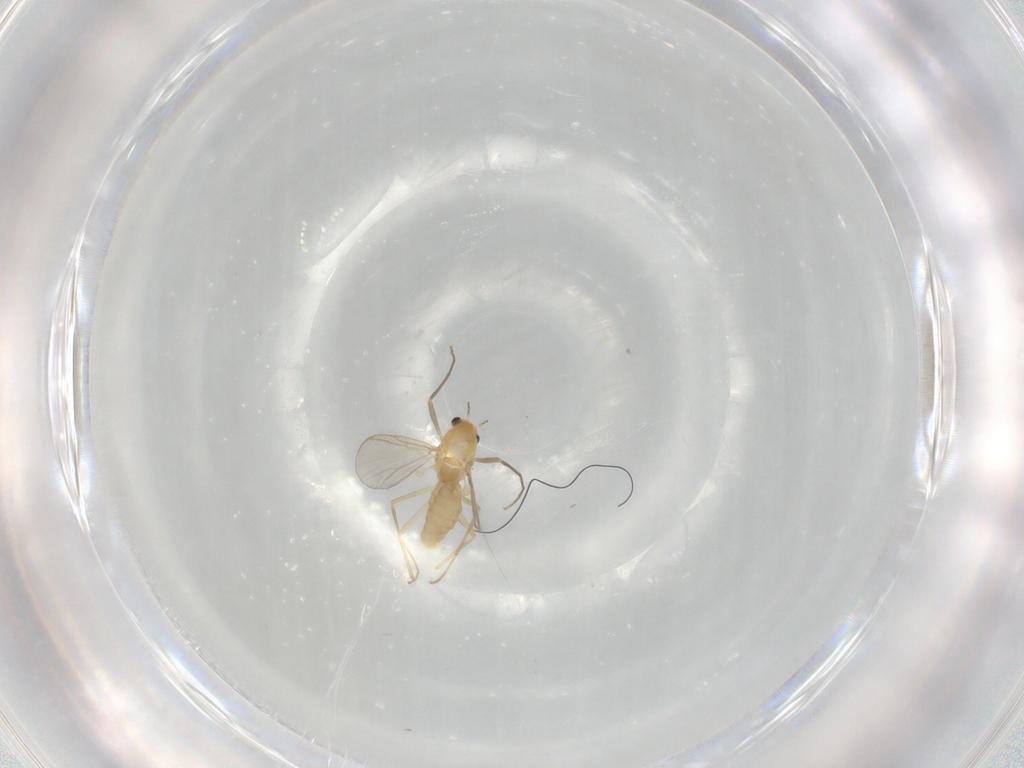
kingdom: Animalia
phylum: Arthropoda
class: Insecta
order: Diptera
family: Chironomidae
